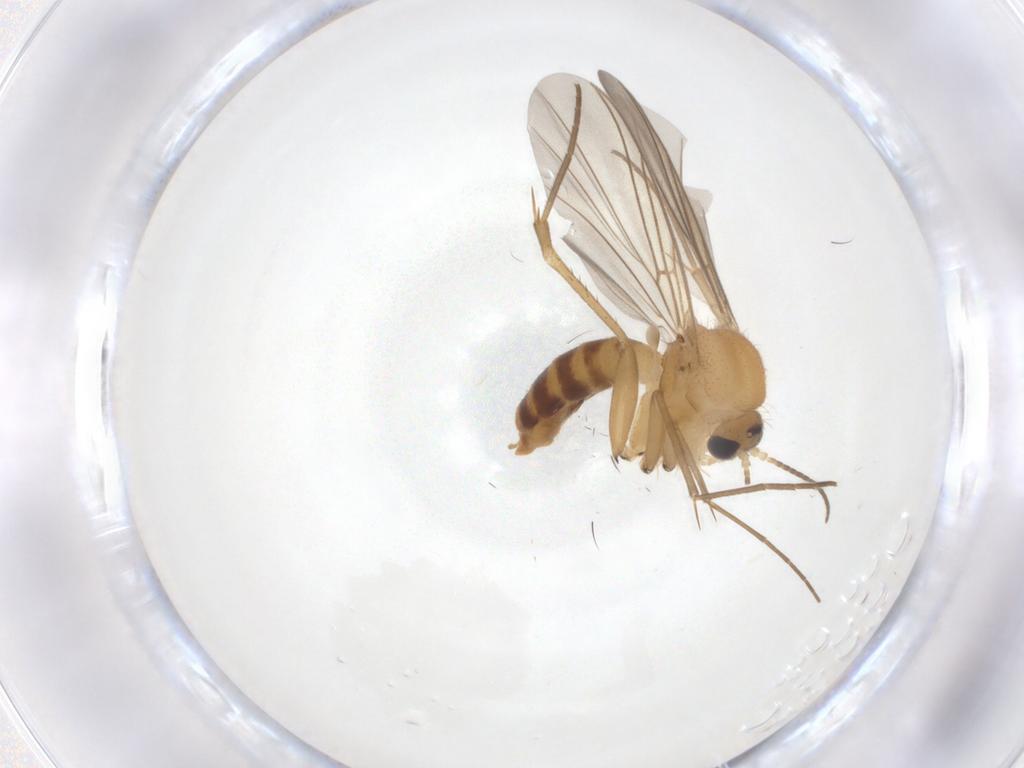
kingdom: Animalia
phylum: Arthropoda
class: Insecta
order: Diptera
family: Mycetophilidae
